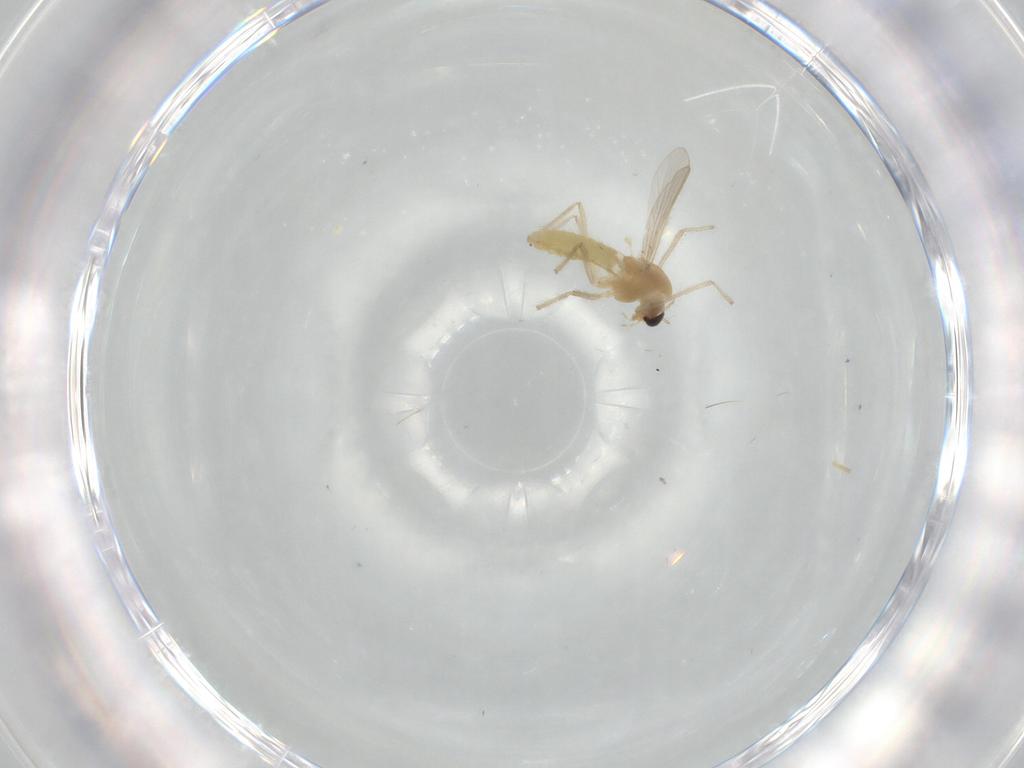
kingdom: Animalia
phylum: Arthropoda
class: Insecta
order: Diptera
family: Chironomidae
